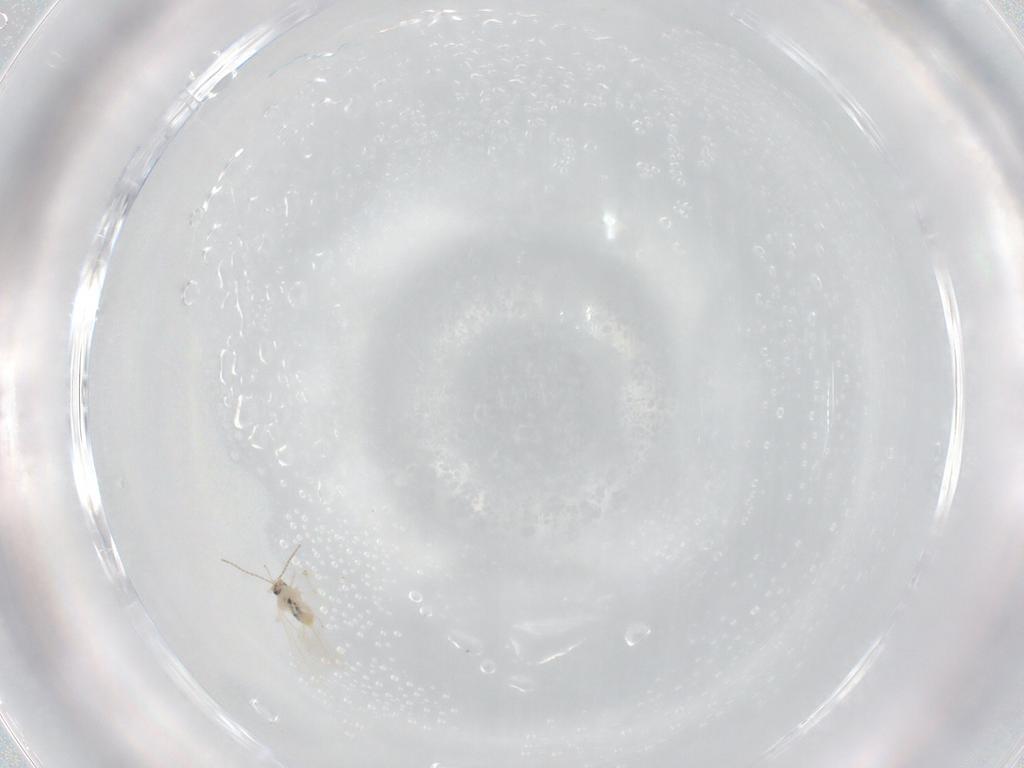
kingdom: Animalia
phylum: Arthropoda
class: Insecta
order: Diptera
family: Cecidomyiidae
